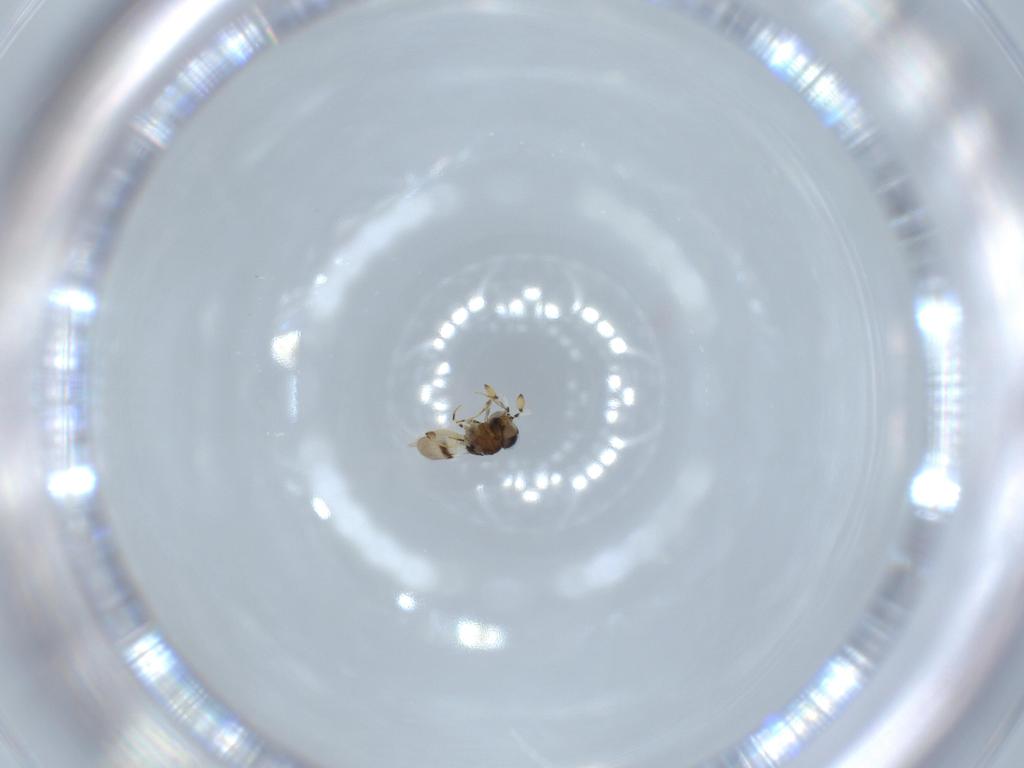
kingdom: Animalia
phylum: Arthropoda
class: Insecta
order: Hymenoptera
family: Scelionidae
